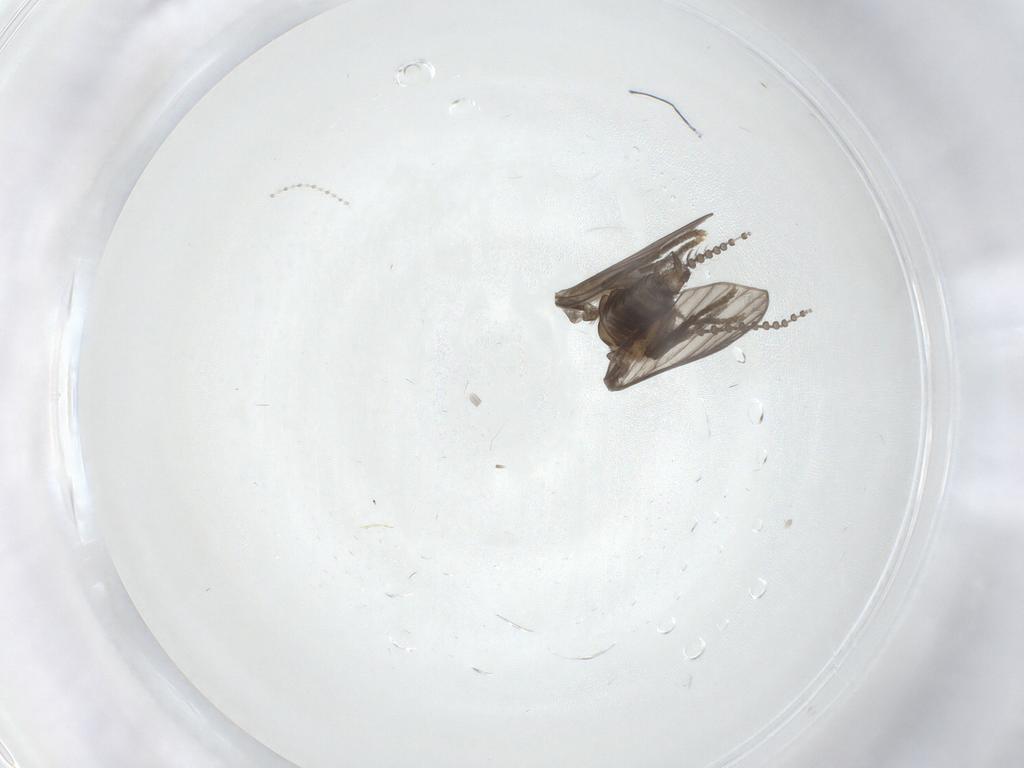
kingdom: Animalia
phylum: Arthropoda
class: Insecta
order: Diptera
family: Psychodidae
